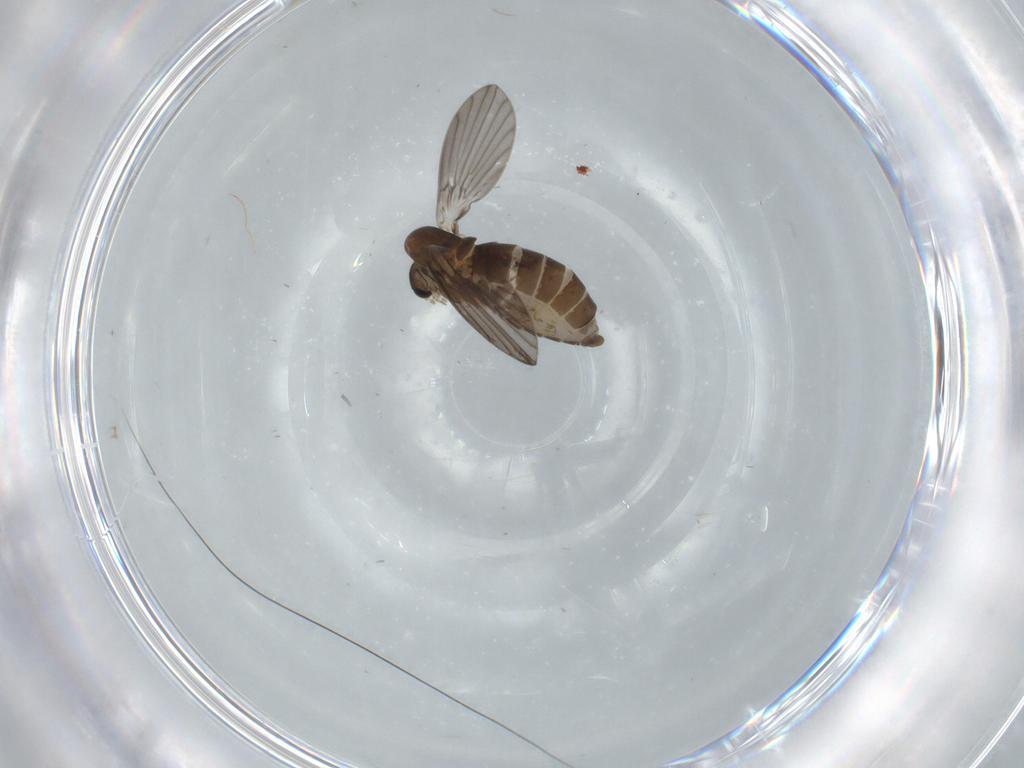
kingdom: Animalia
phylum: Arthropoda
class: Insecta
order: Diptera
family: Dolichopodidae
